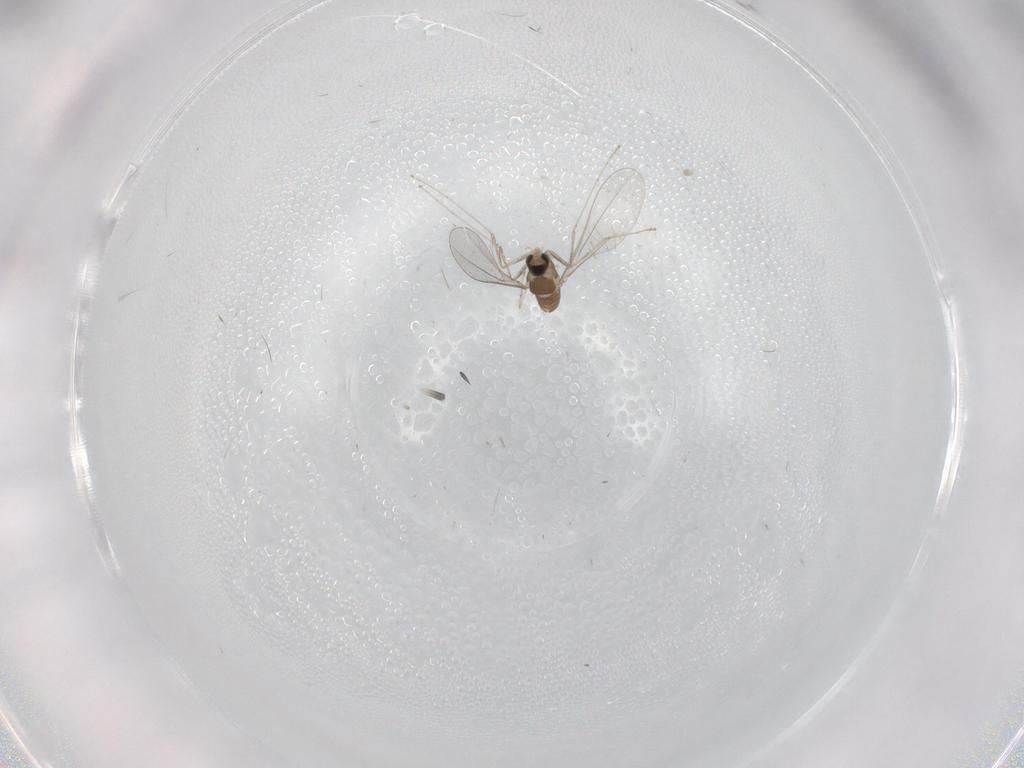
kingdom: Animalia
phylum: Arthropoda
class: Insecta
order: Diptera
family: Cecidomyiidae
